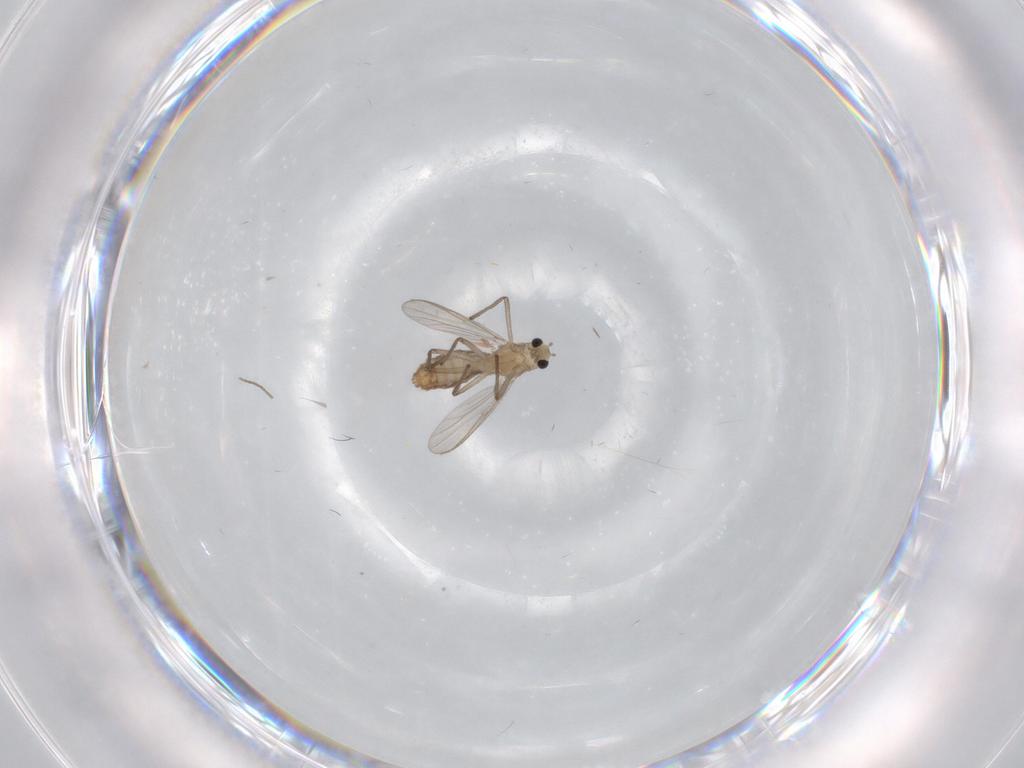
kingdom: Animalia
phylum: Arthropoda
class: Insecta
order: Diptera
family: Chironomidae
